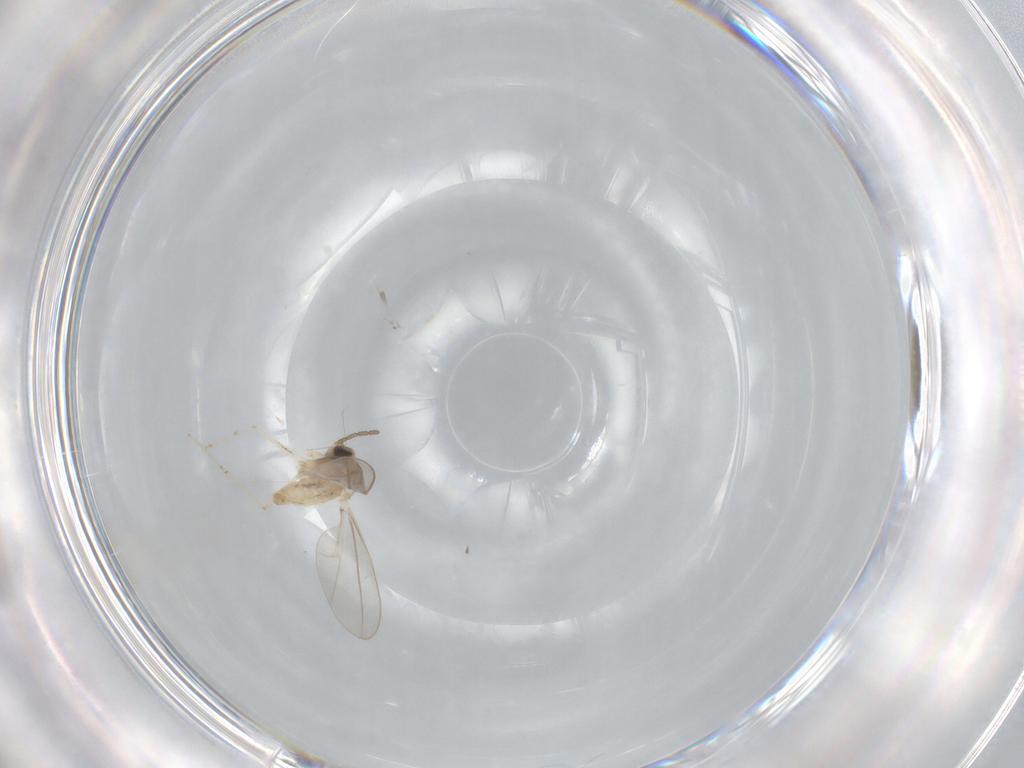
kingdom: Animalia
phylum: Arthropoda
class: Insecta
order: Diptera
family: Cecidomyiidae
